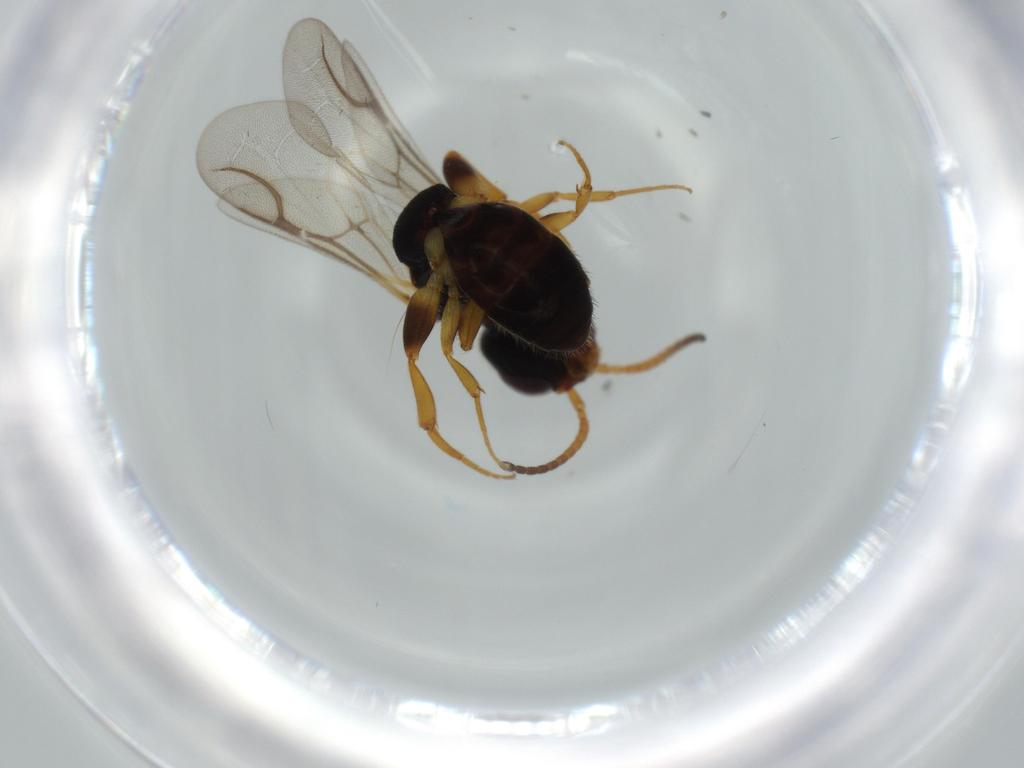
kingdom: Animalia
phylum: Arthropoda
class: Insecta
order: Hymenoptera
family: Bethylidae
